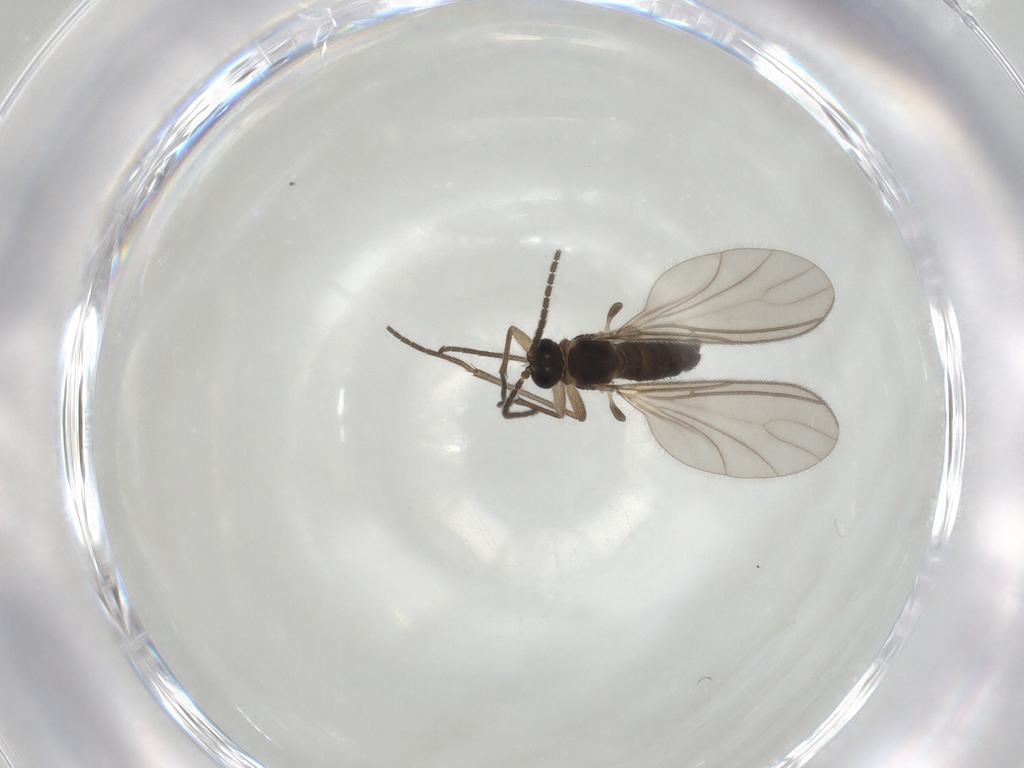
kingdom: Animalia
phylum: Arthropoda
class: Insecta
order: Diptera
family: Sciaridae
